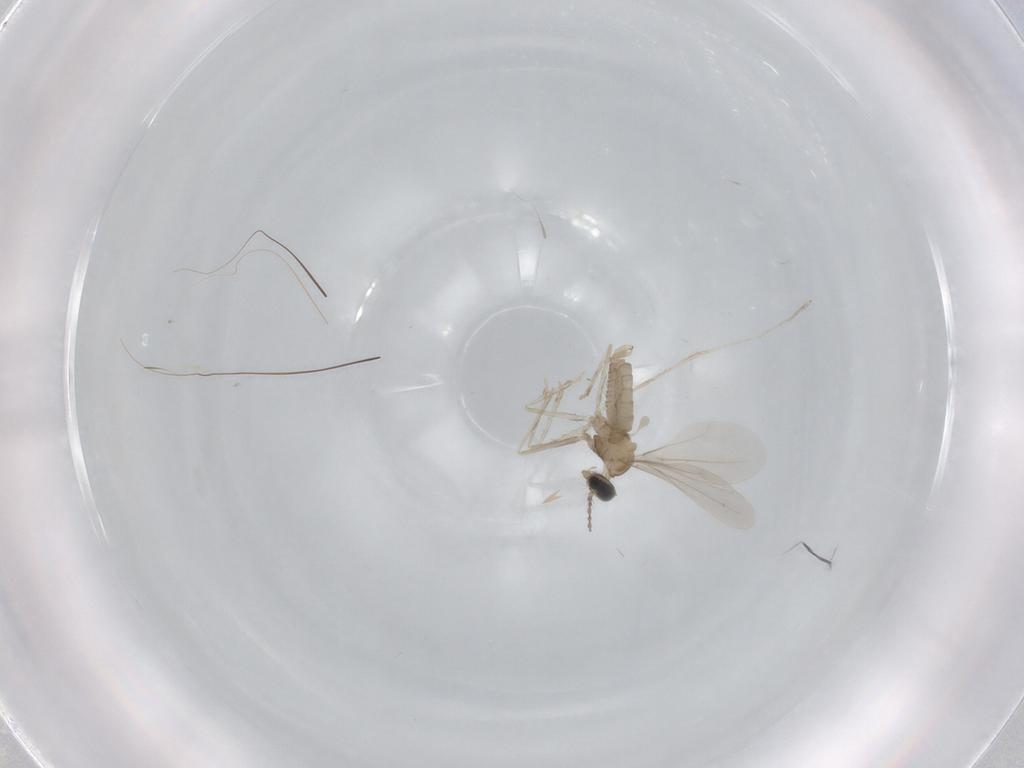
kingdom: Animalia
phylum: Arthropoda
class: Insecta
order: Diptera
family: Cecidomyiidae
